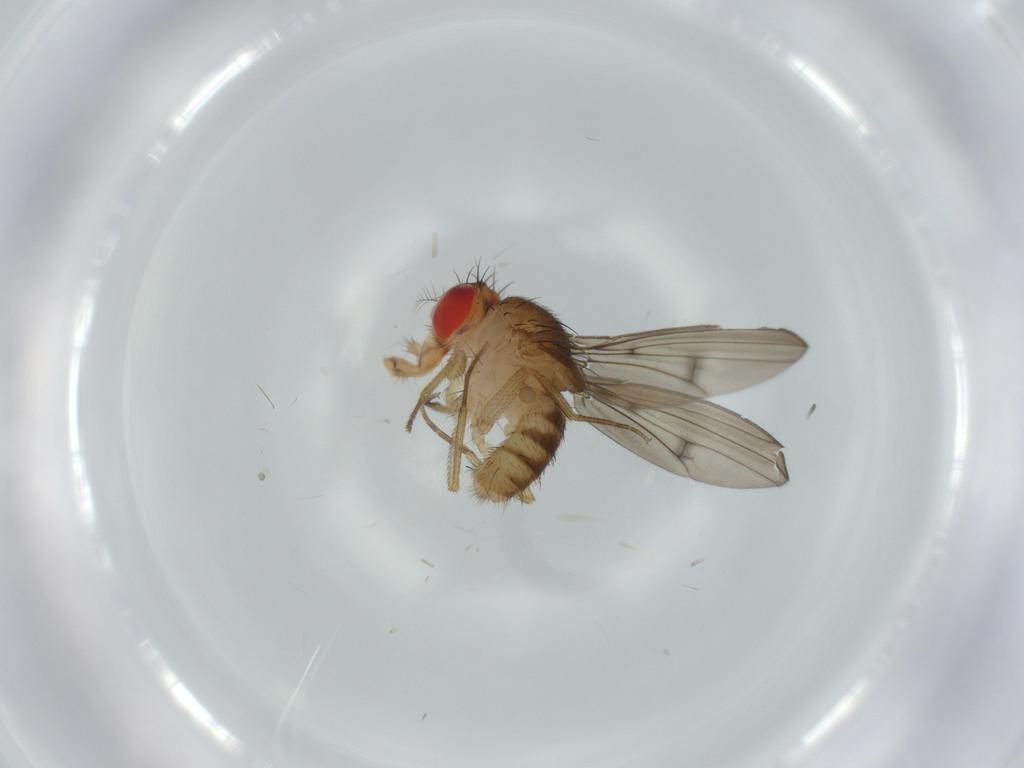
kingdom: Animalia
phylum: Arthropoda
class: Insecta
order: Diptera
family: Drosophilidae
